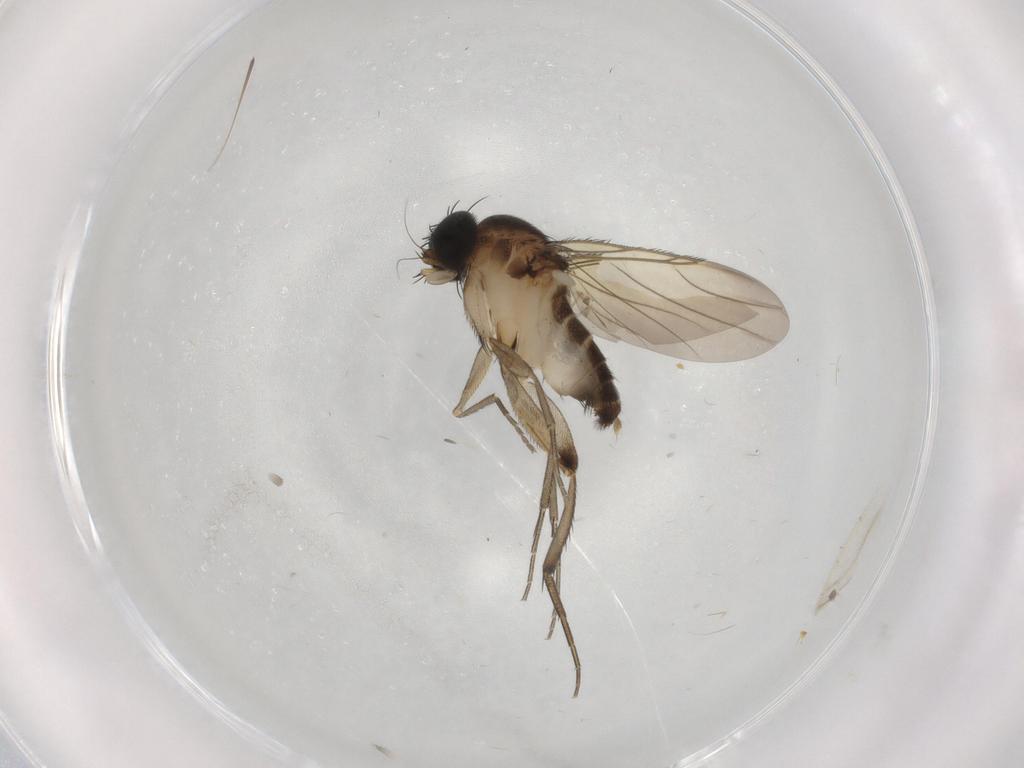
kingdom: Animalia
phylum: Arthropoda
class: Insecta
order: Diptera
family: Phoridae
